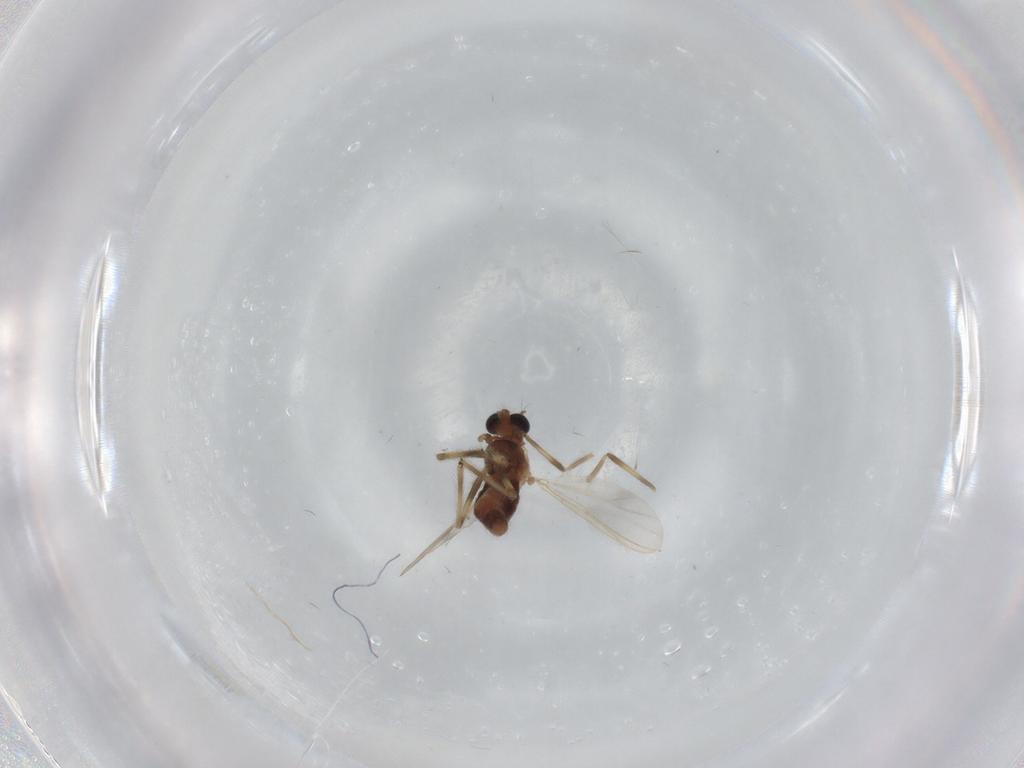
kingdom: Animalia
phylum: Arthropoda
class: Insecta
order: Diptera
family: Chironomidae
